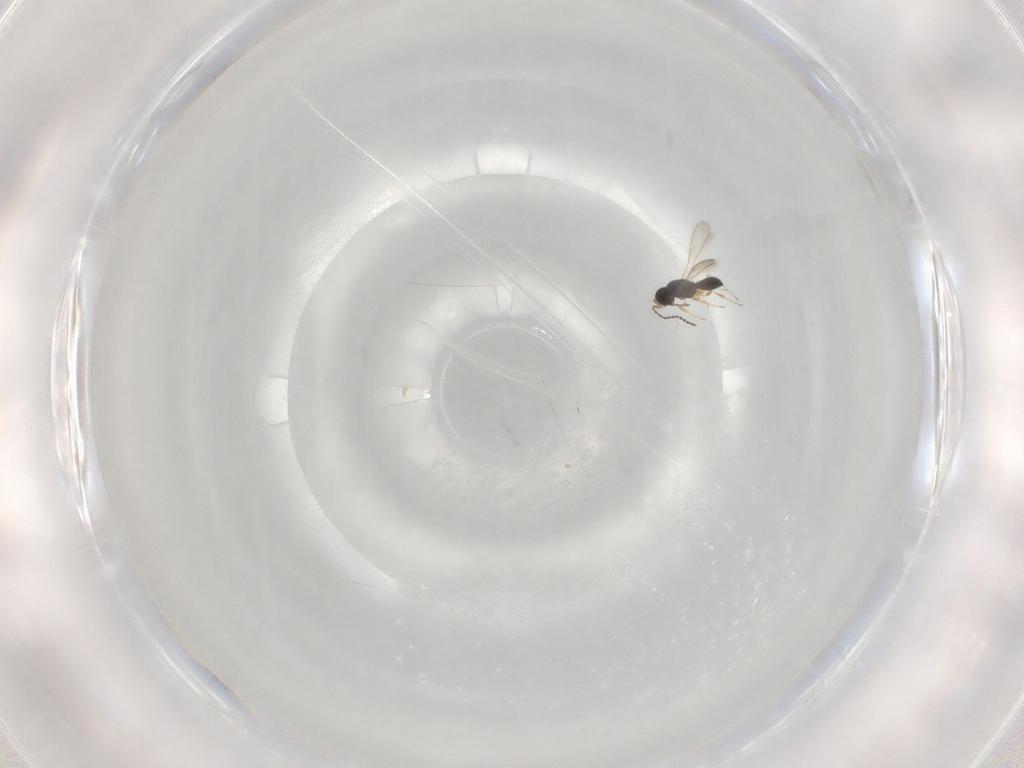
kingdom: Animalia
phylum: Arthropoda
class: Insecta
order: Hymenoptera
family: Scelionidae
